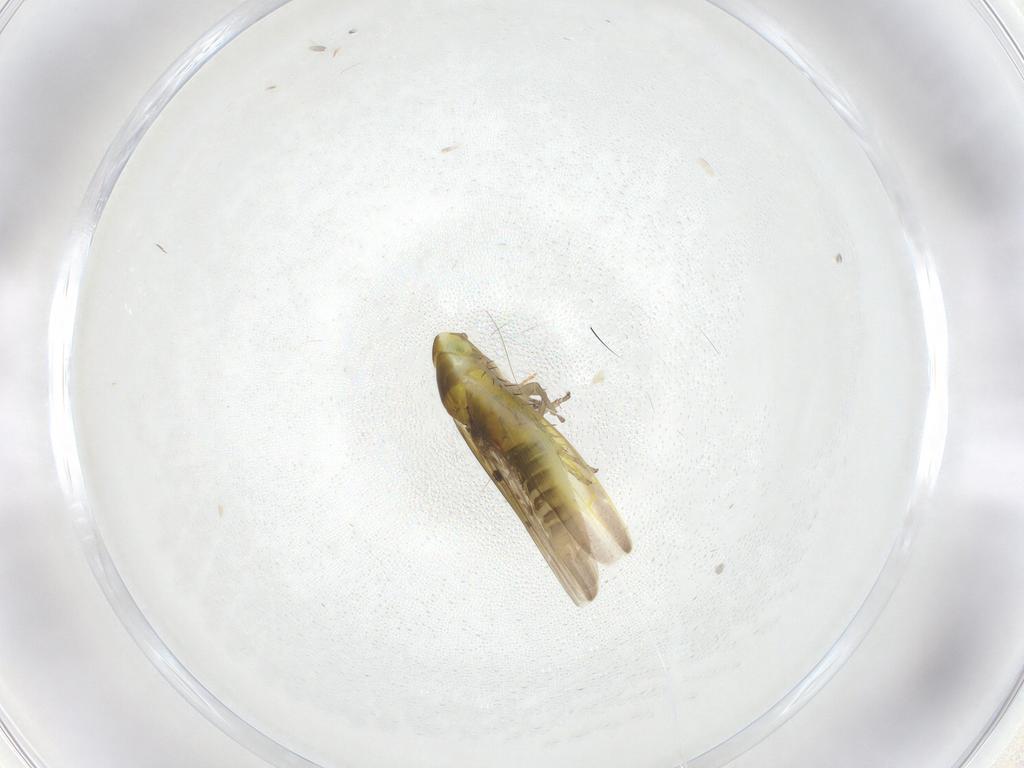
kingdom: Animalia
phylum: Arthropoda
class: Insecta
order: Hemiptera
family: Cicadellidae
